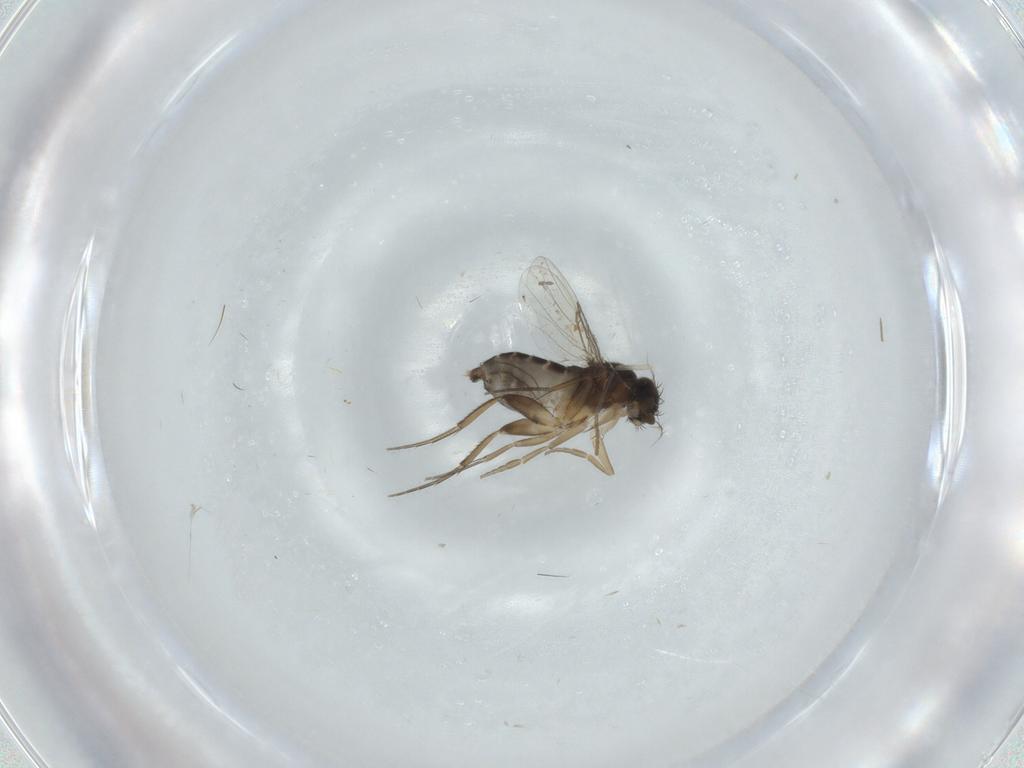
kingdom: Animalia
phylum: Arthropoda
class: Insecta
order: Diptera
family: Phoridae
